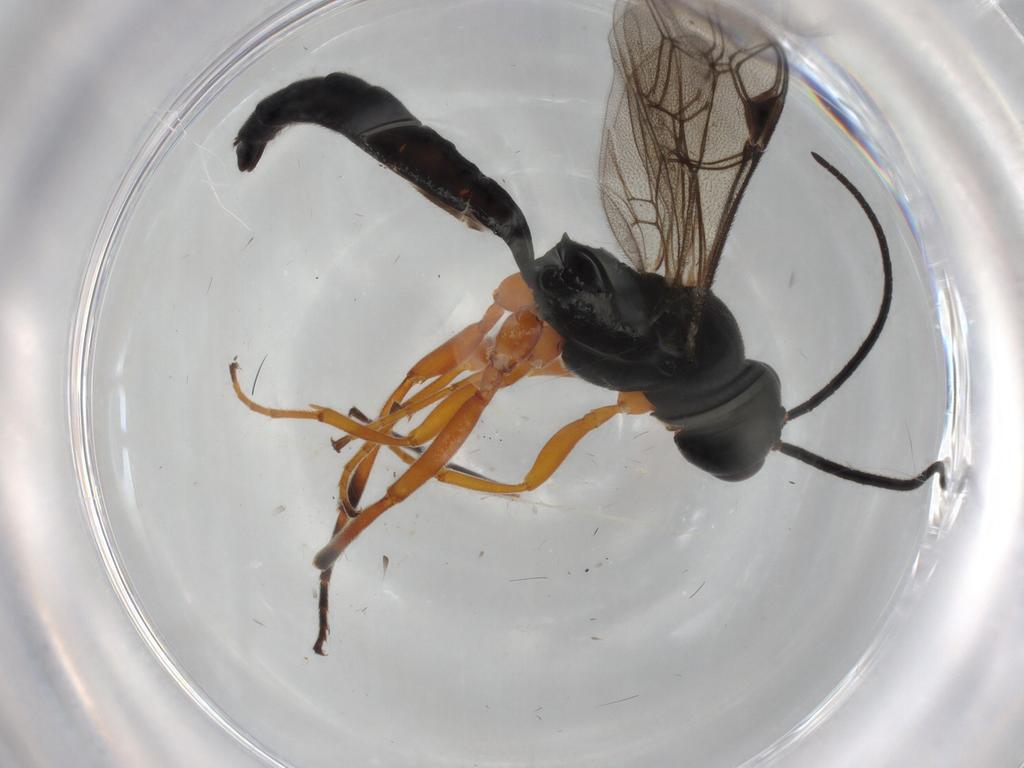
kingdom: Animalia
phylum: Arthropoda
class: Insecta
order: Hymenoptera
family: Ichneumonidae
